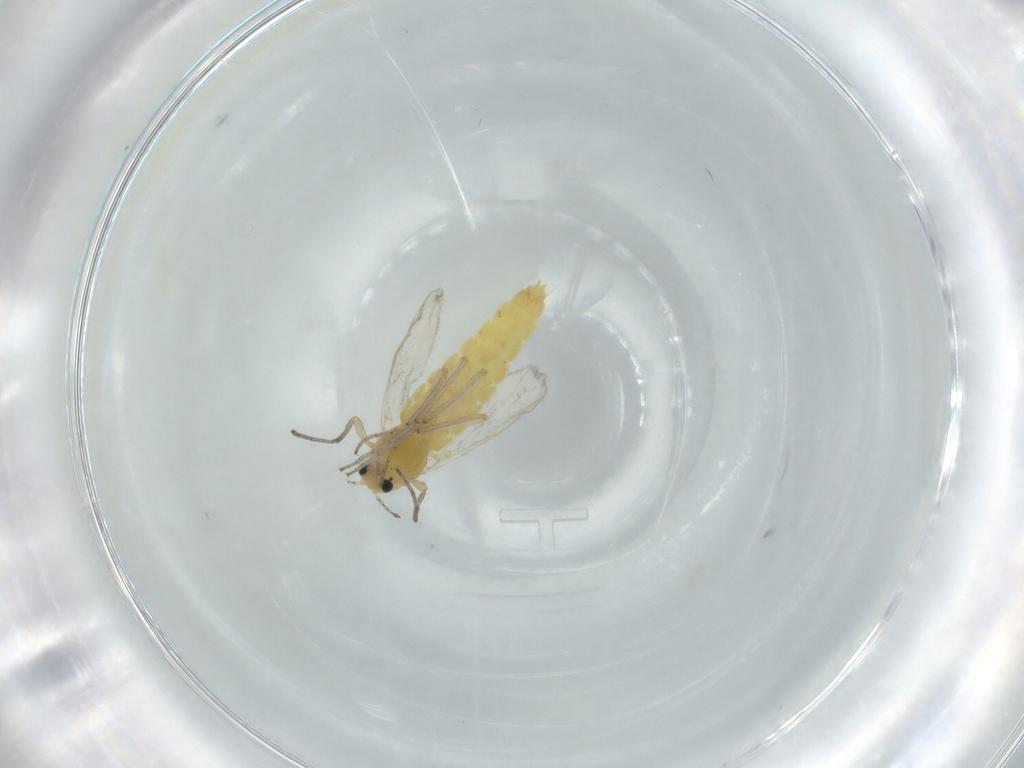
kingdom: Animalia
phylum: Arthropoda
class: Insecta
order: Diptera
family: Chironomidae
